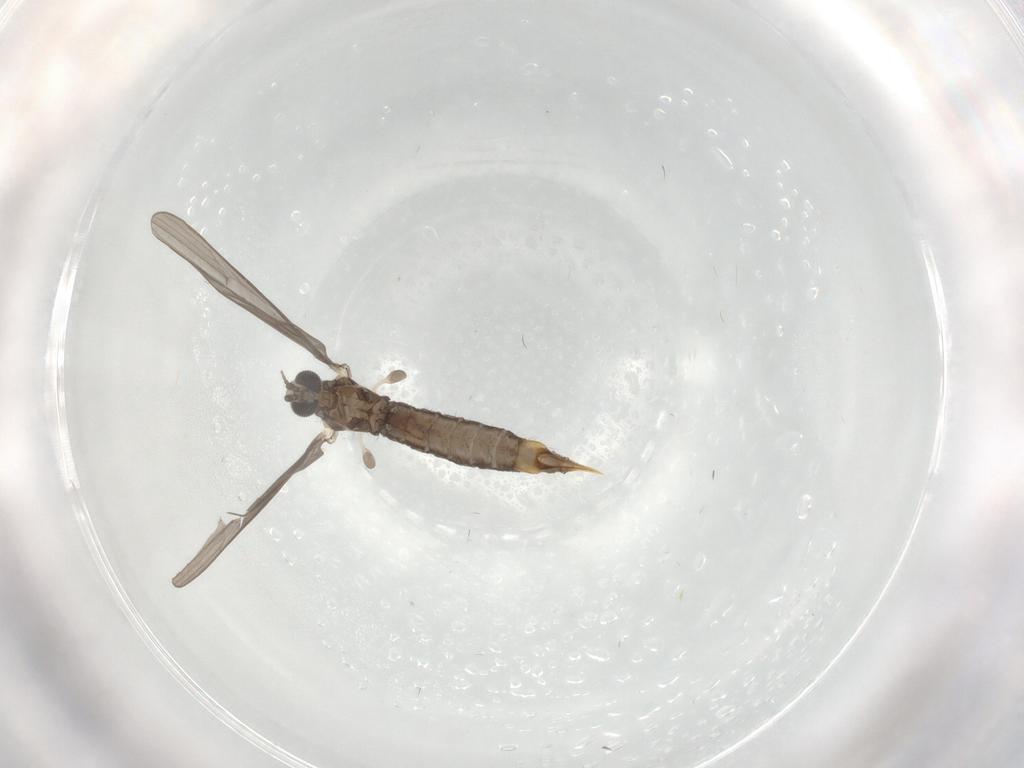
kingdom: Animalia
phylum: Arthropoda
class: Insecta
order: Diptera
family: Limoniidae
